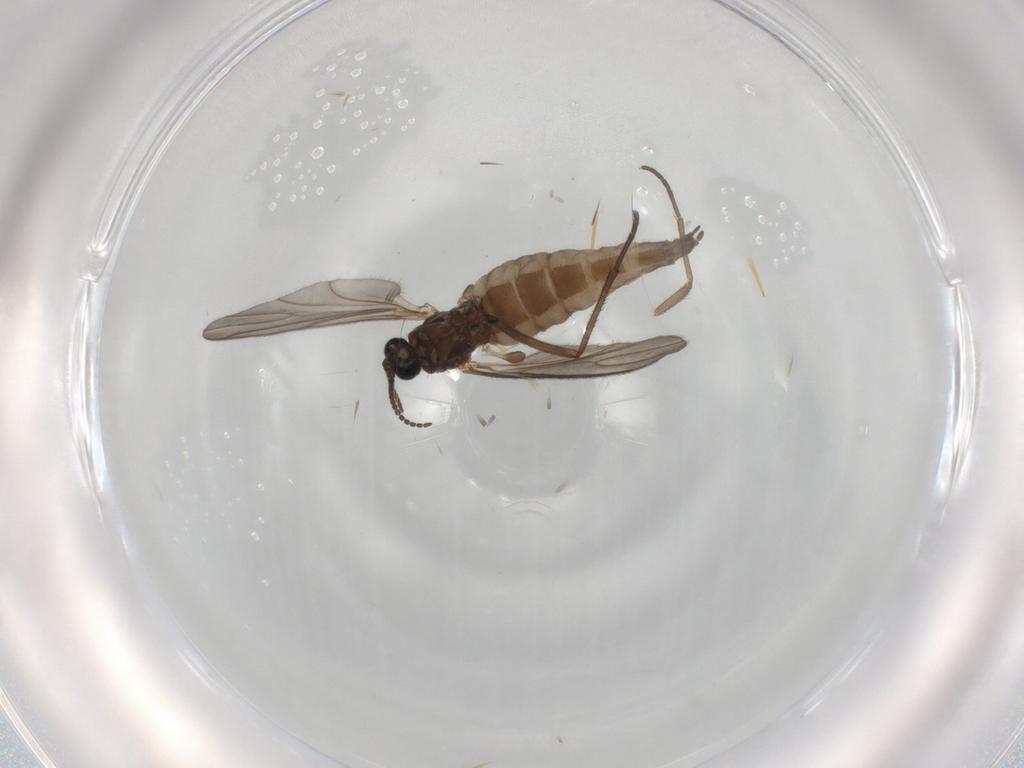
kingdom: Animalia
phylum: Arthropoda
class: Insecta
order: Diptera
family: Sciaridae
